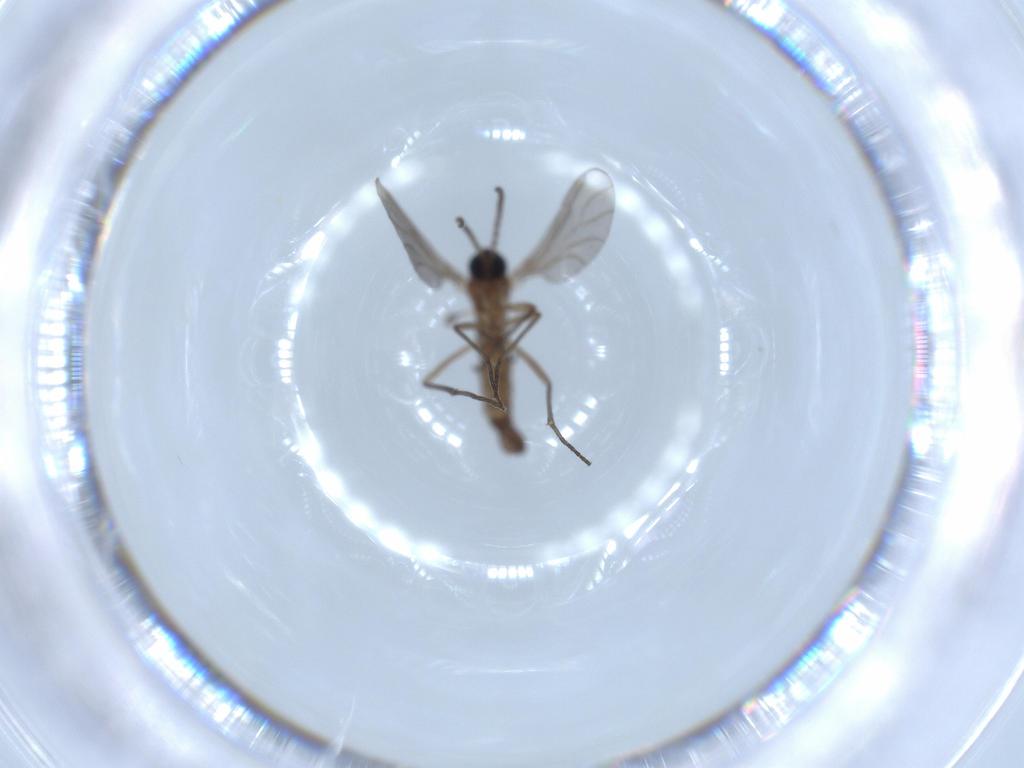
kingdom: Animalia
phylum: Arthropoda
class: Insecta
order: Diptera
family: Sciaridae
